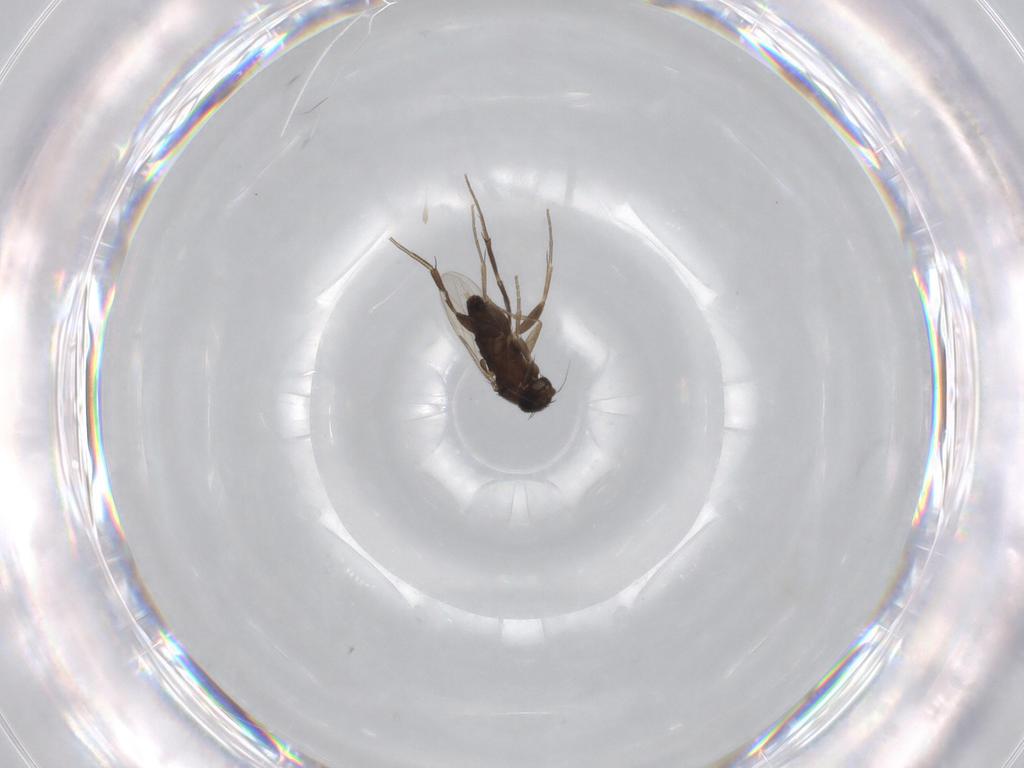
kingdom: Animalia
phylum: Arthropoda
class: Insecta
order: Diptera
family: Phoridae
